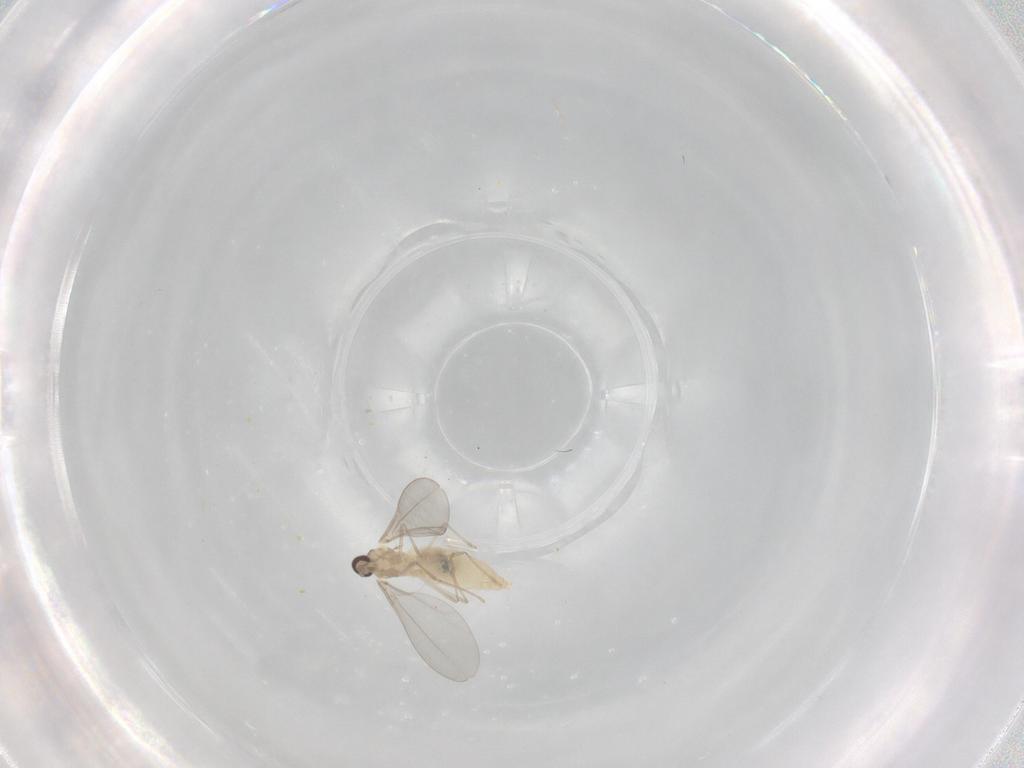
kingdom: Animalia
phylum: Arthropoda
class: Insecta
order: Diptera
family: Cecidomyiidae
